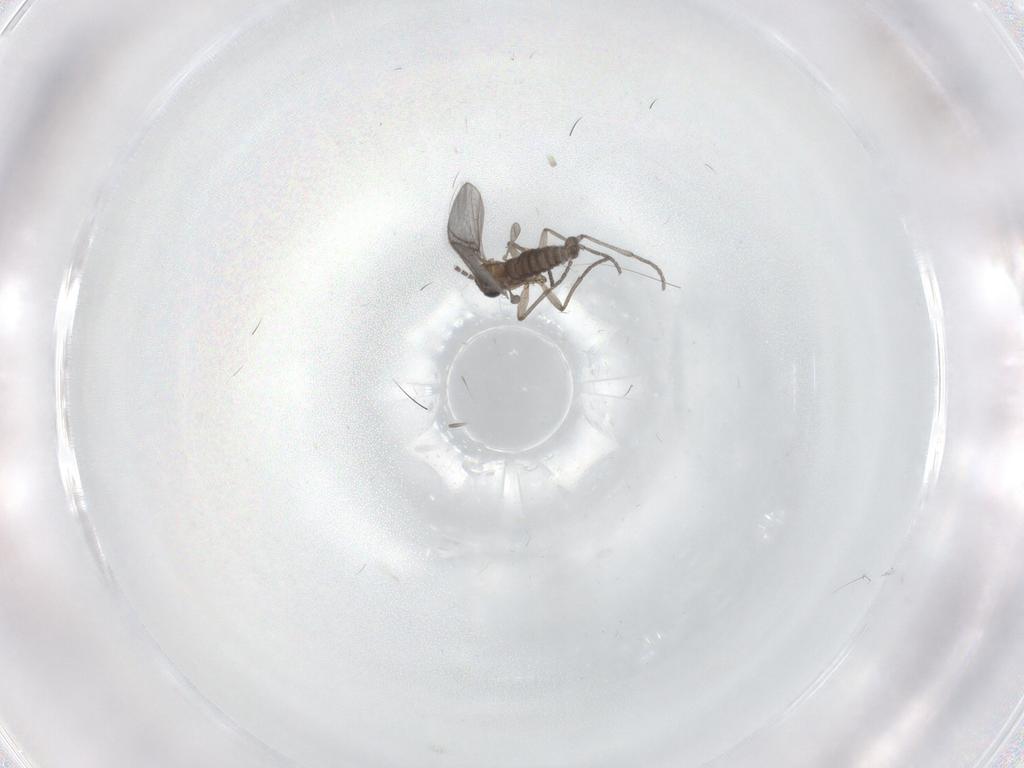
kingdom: Animalia
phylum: Arthropoda
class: Insecta
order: Diptera
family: Sciaridae
